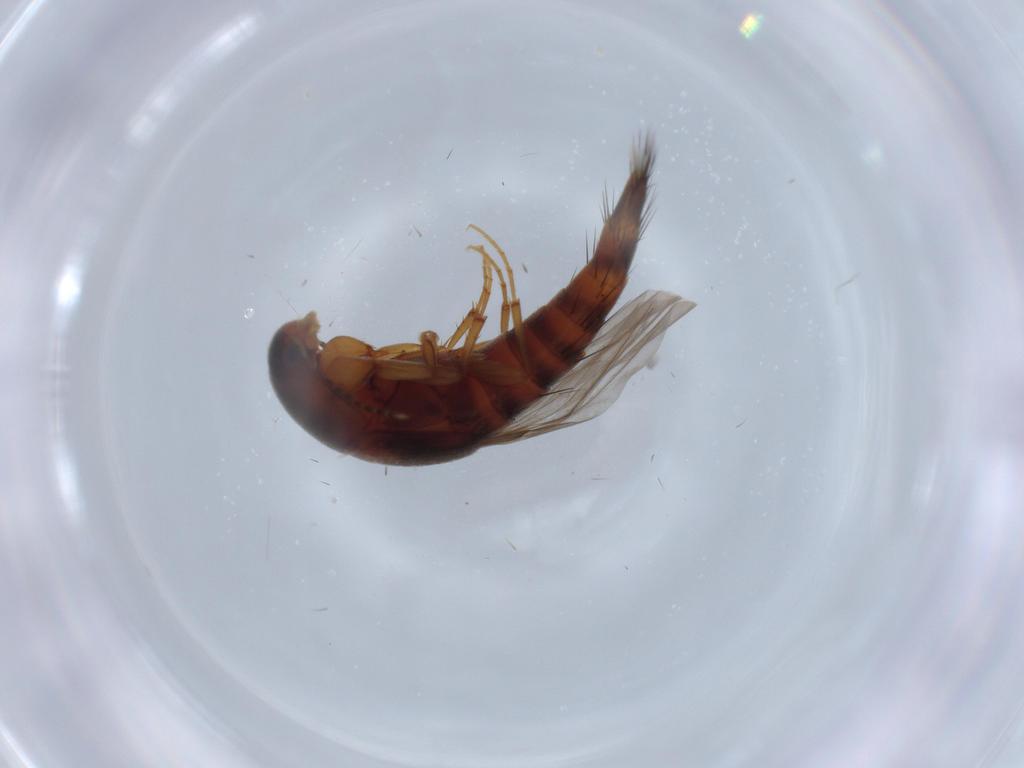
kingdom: Animalia
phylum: Arthropoda
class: Insecta
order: Coleoptera
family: Staphylinidae
